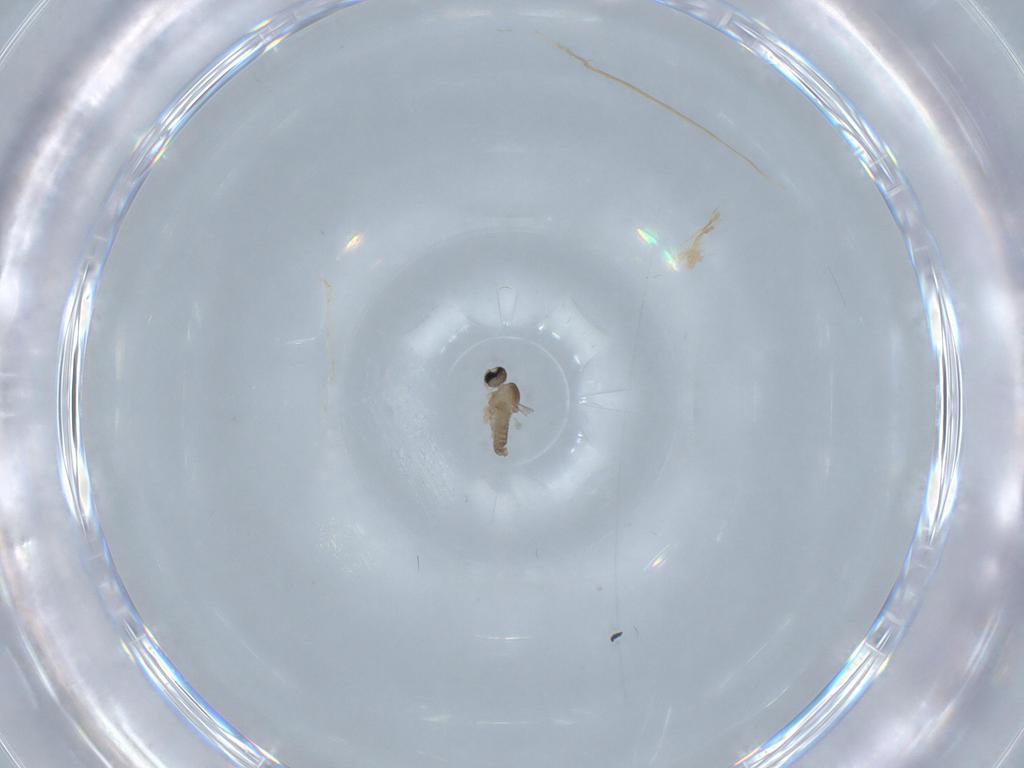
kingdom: Animalia
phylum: Arthropoda
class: Insecta
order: Diptera
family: Cecidomyiidae
